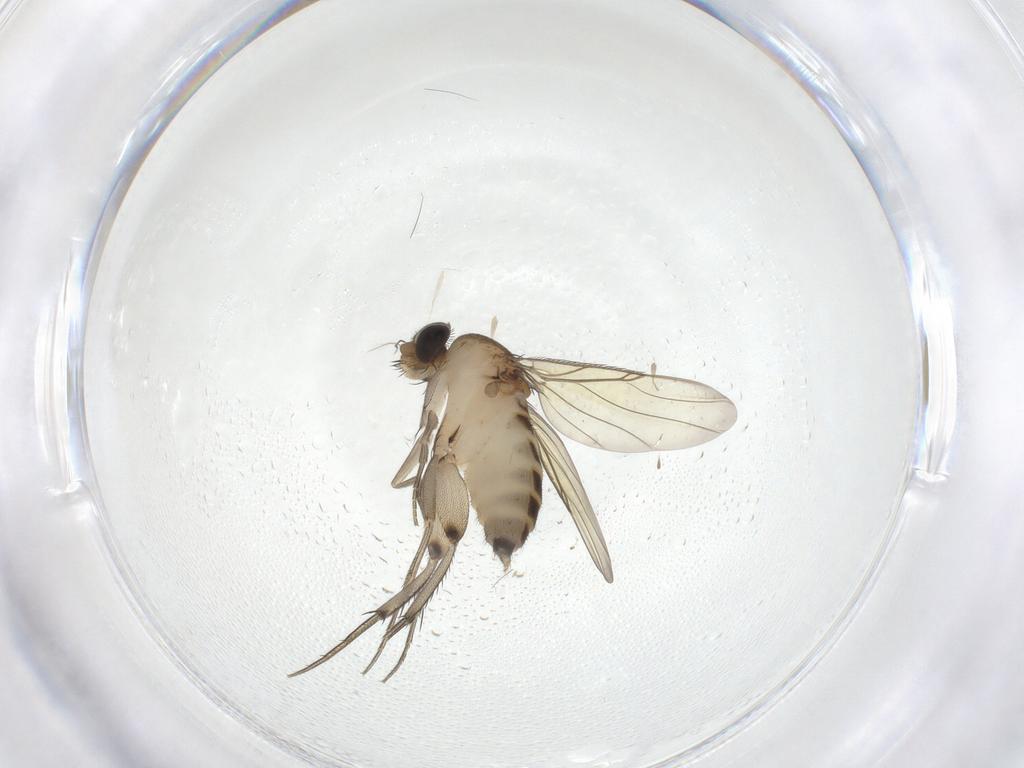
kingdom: Animalia
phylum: Arthropoda
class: Insecta
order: Diptera
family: Phoridae
